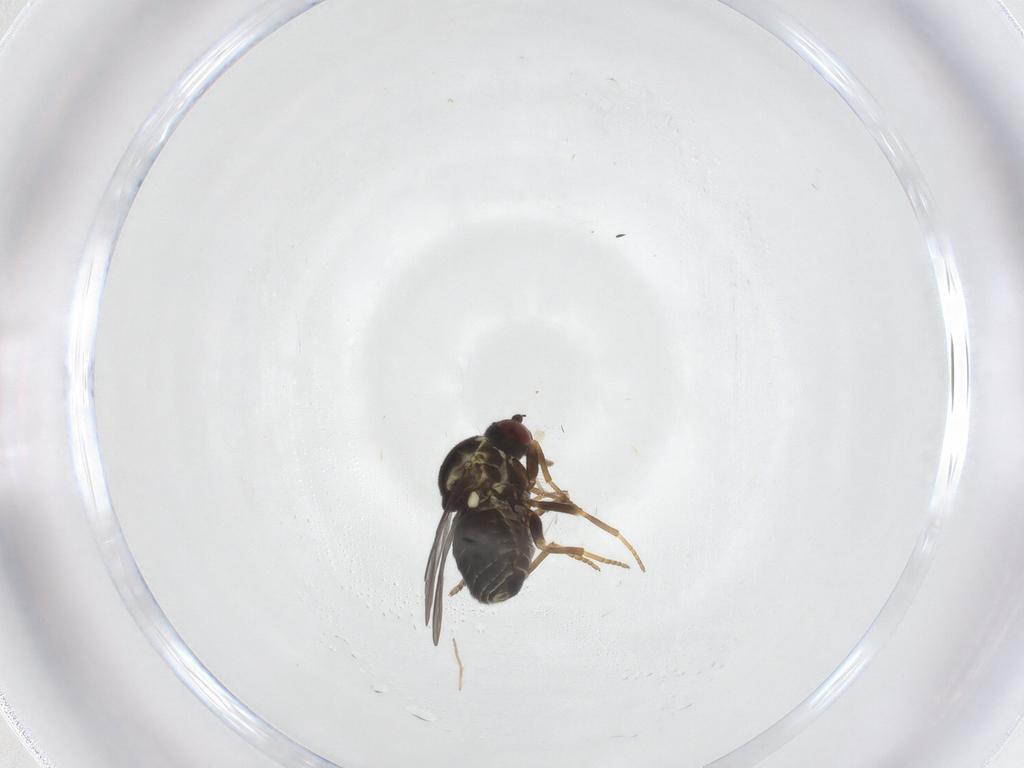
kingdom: Animalia
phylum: Arthropoda
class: Insecta
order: Diptera
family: Bombyliidae
